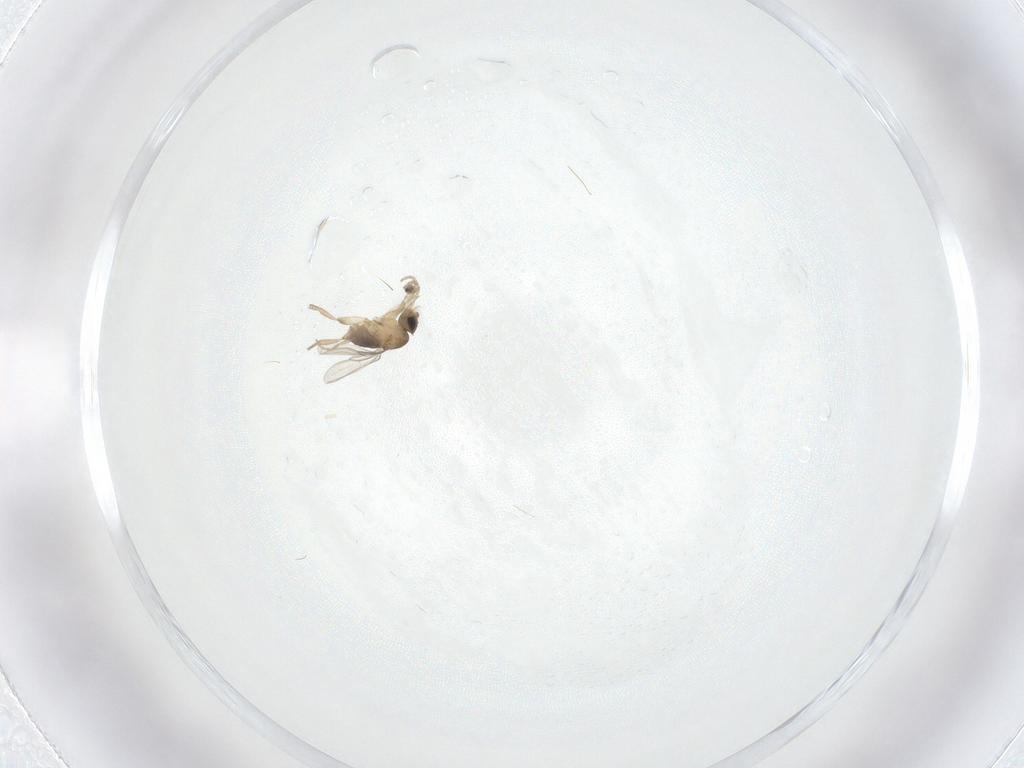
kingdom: Animalia
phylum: Arthropoda
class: Insecta
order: Diptera
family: Phoridae
